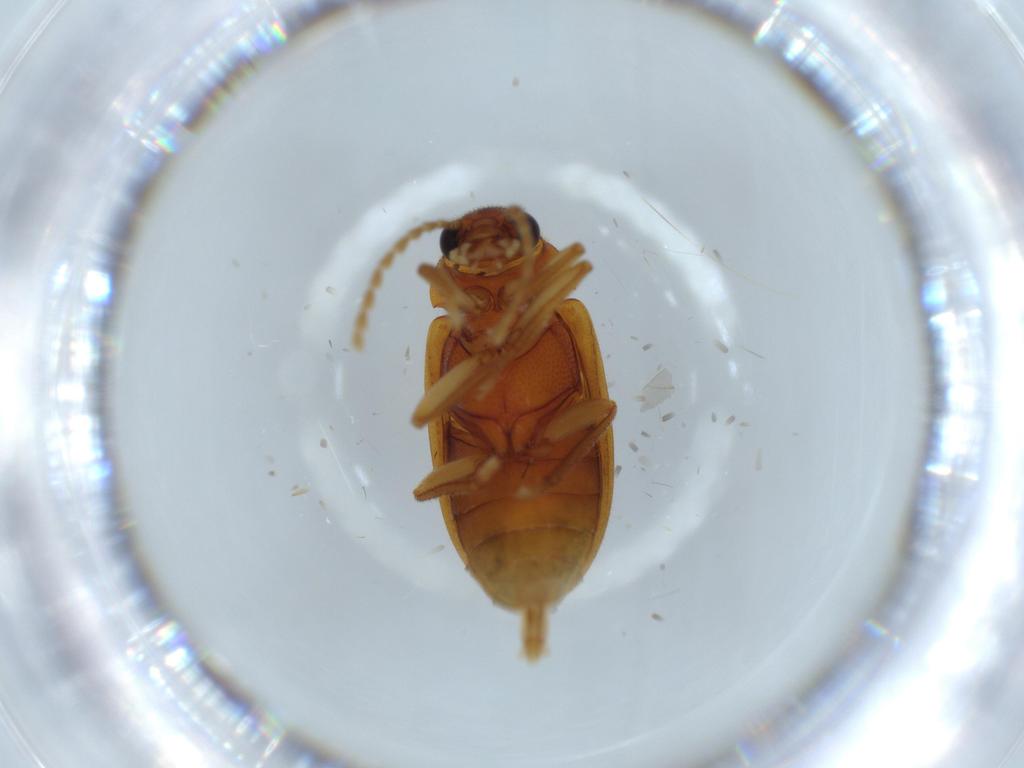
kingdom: Animalia
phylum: Arthropoda
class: Insecta
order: Coleoptera
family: Ptilodactylidae
